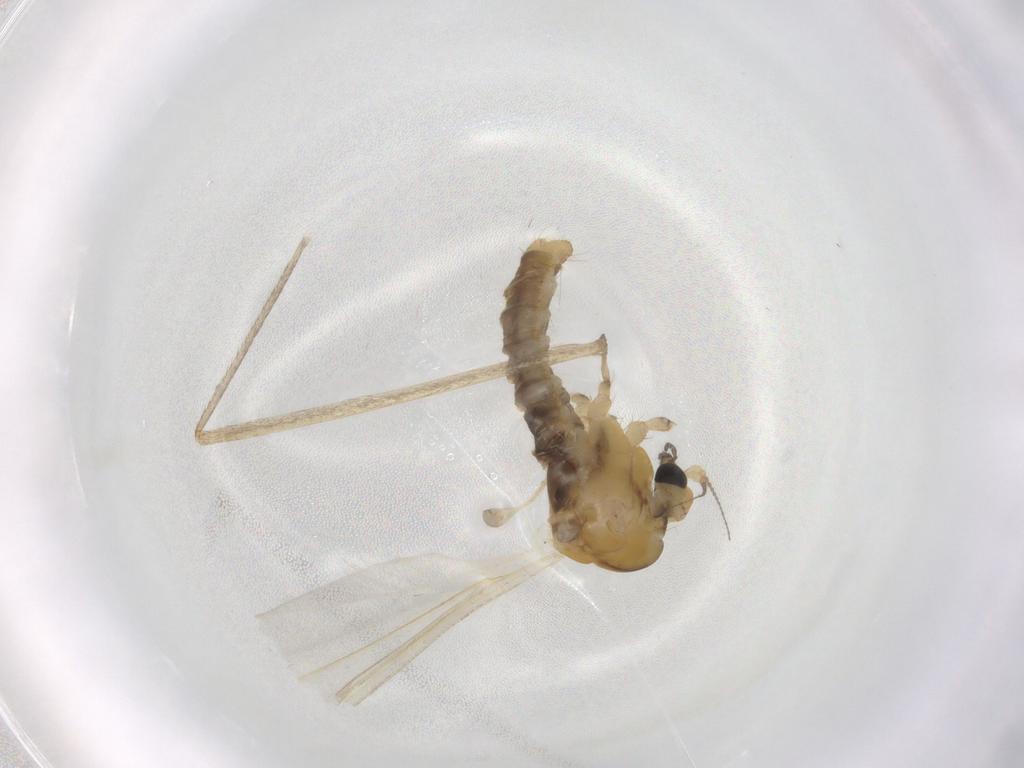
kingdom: Animalia
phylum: Arthropoda
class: Insecta
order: Diptera
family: Limoniidae
